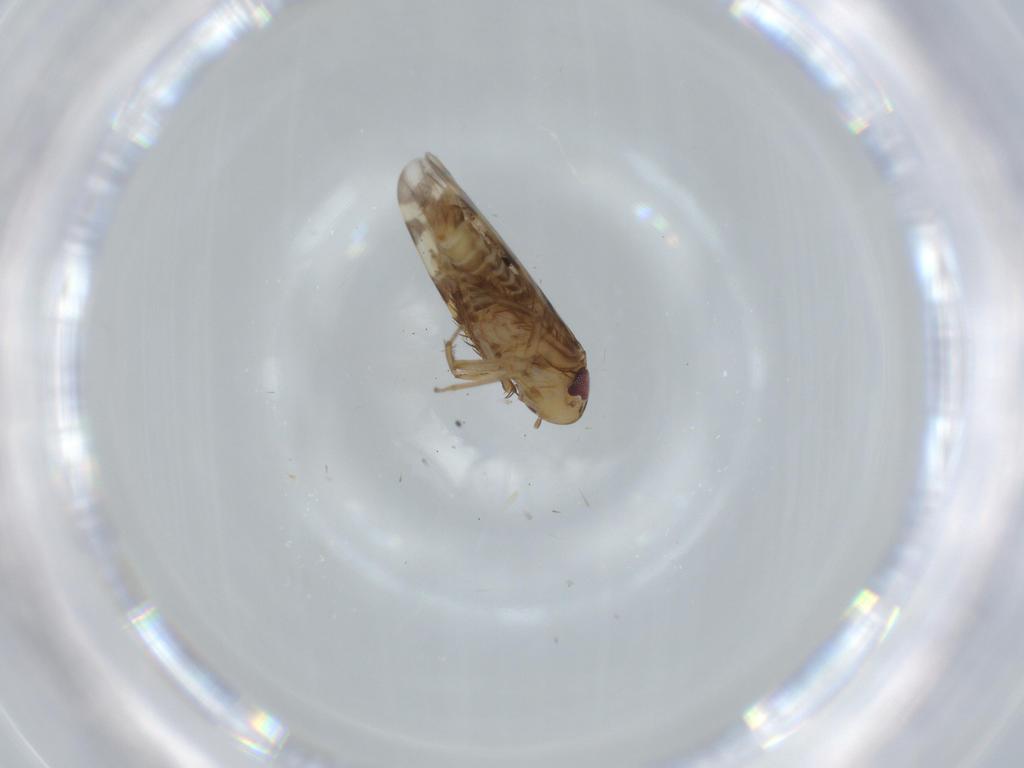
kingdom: Animalia
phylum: Arthropoda
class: Insecta
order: Hemiptera
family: Cicadellidae
